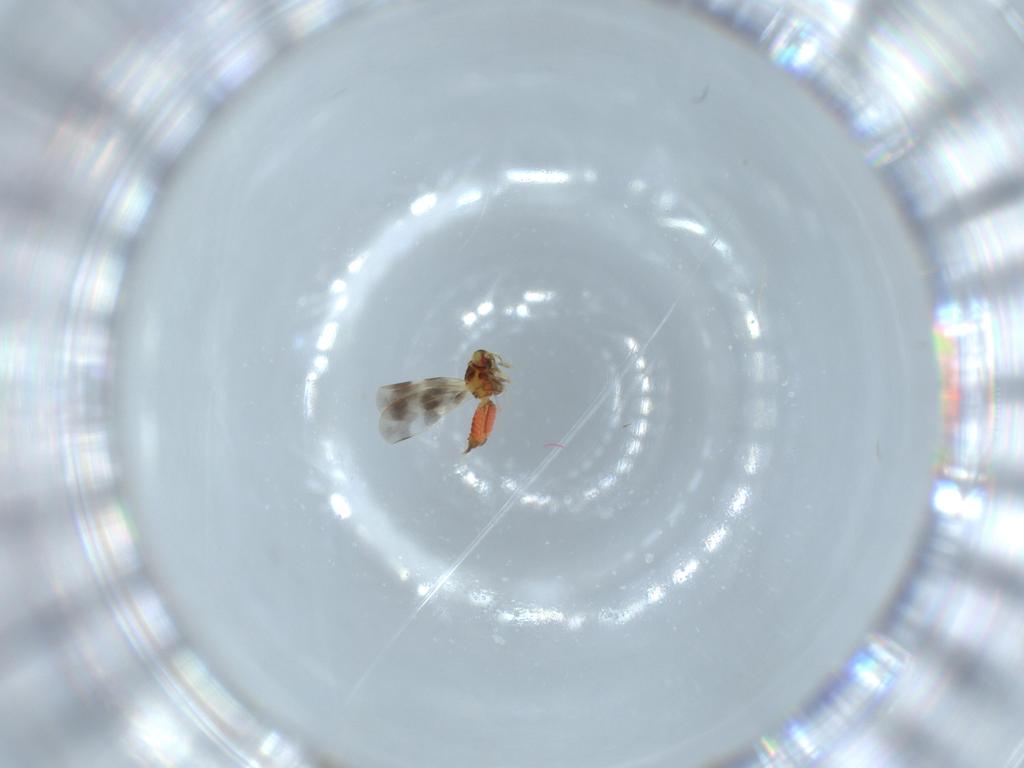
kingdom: Animalia
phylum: Arthropoda
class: Insecta
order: Hemiptera
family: Aleyrodidae
